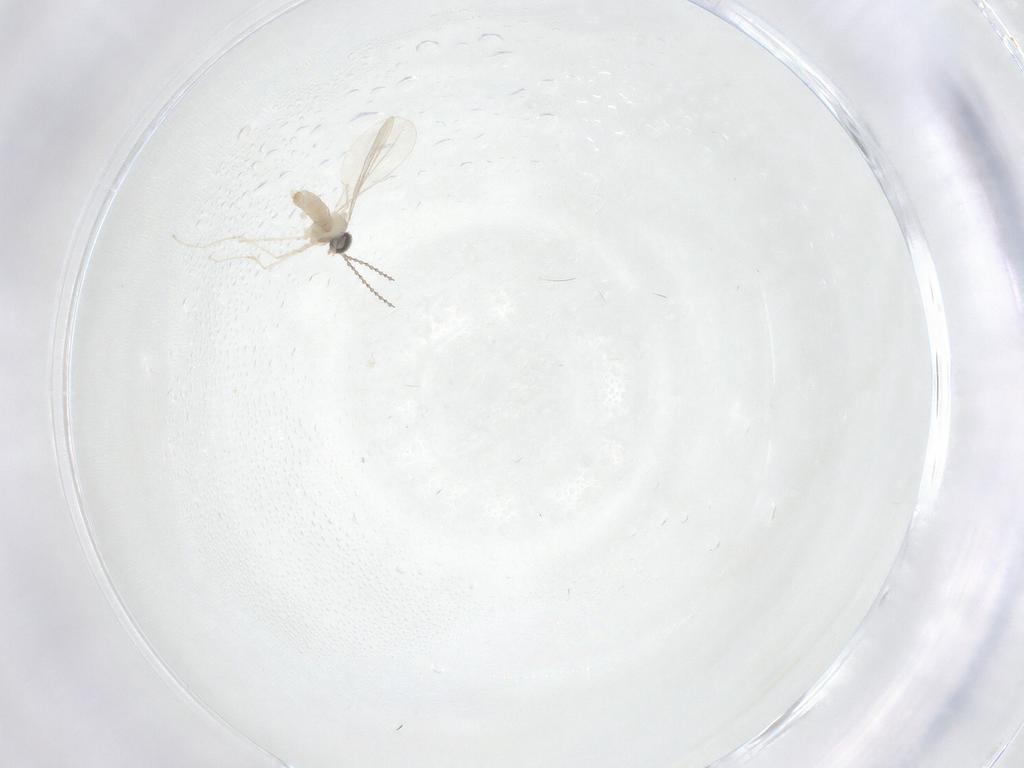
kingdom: Animalia
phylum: Arthropoda
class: Insecta
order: Diptera
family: Cecidomyiidae
